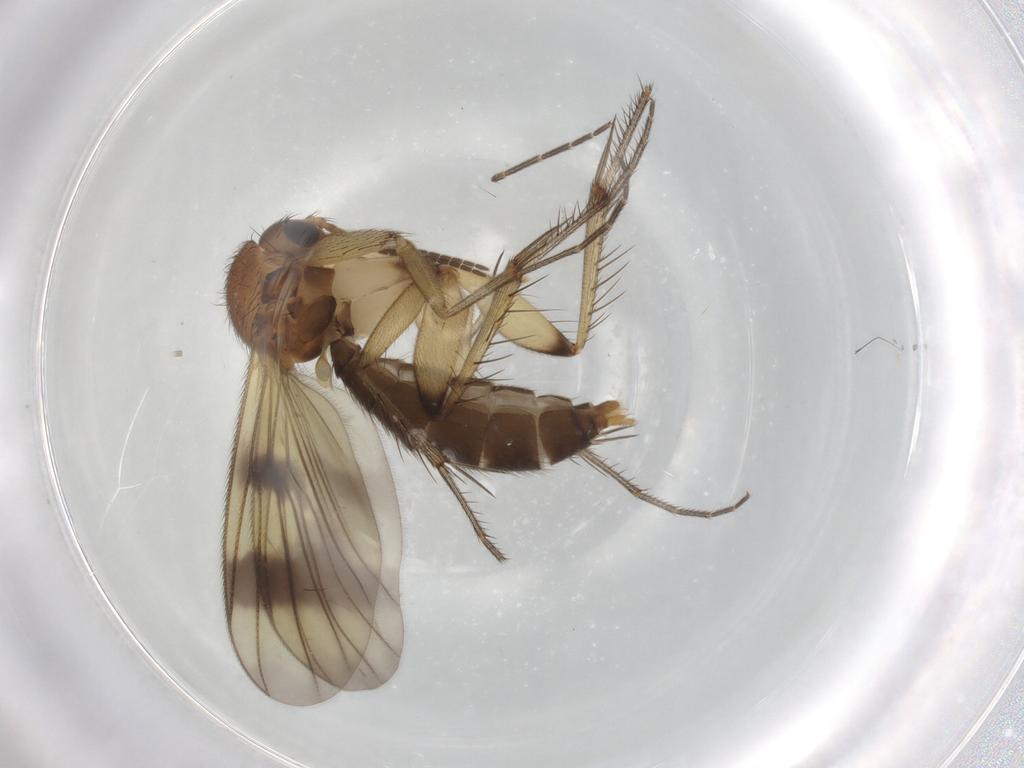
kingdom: Animalia
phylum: Arthropoda
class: Insecta
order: Diptera
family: Chironomidae
